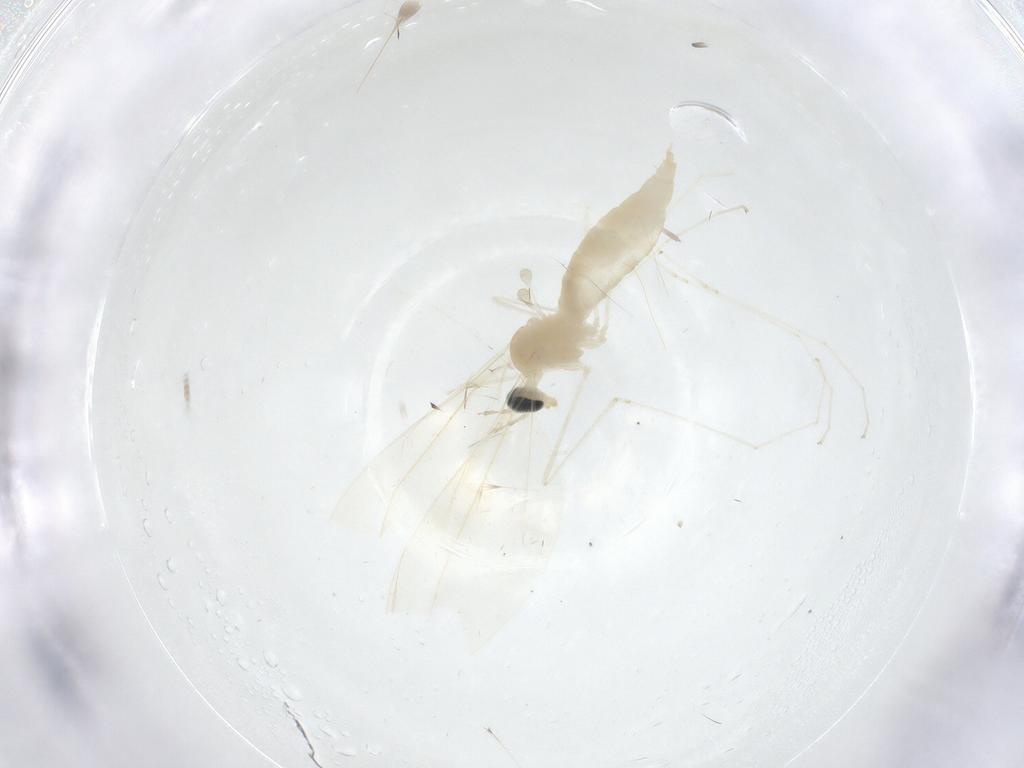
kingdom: Animalia
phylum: Arthropoda
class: Insecta
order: Diptera
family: Cecidomyiidae
